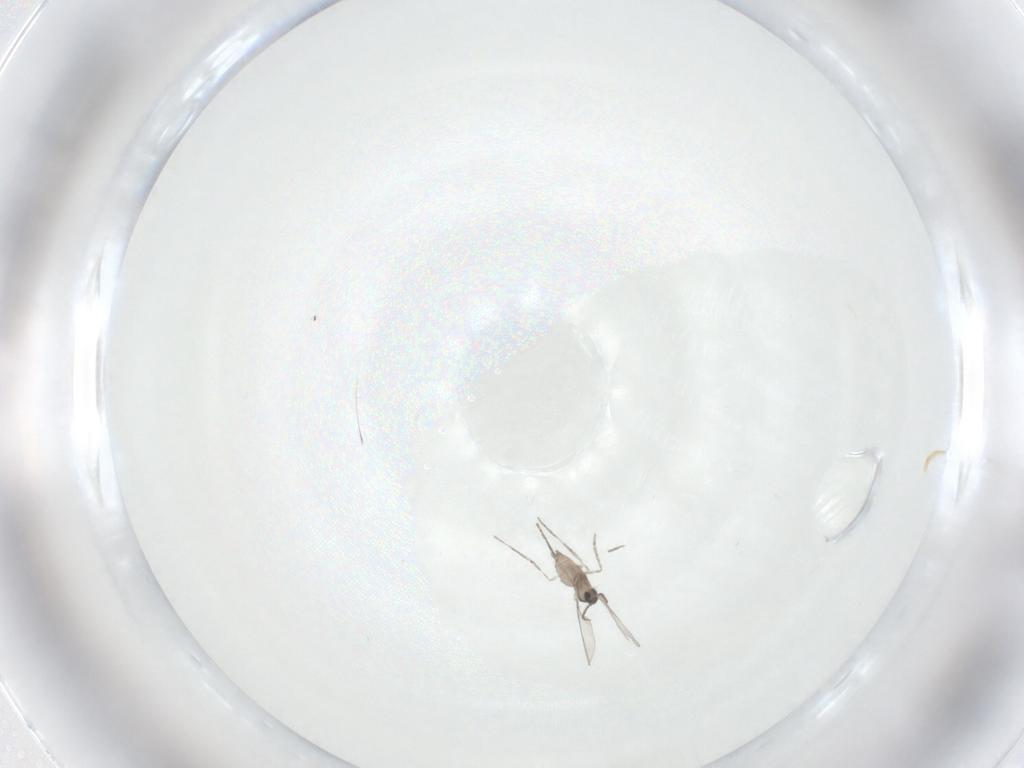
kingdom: Animalia
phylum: Arthropoda
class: Insecta
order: Diptera
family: Cecidomyiidae
